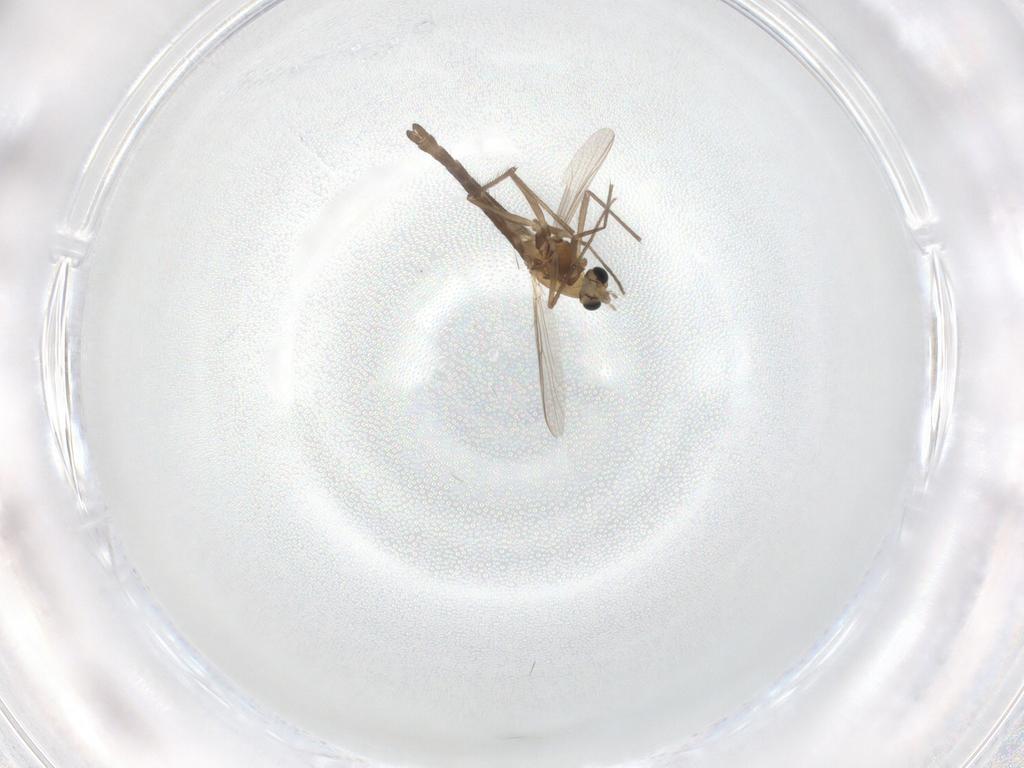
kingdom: Animalia
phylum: Arthropoda
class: Insecta
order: Diptera
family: Chironomidae
